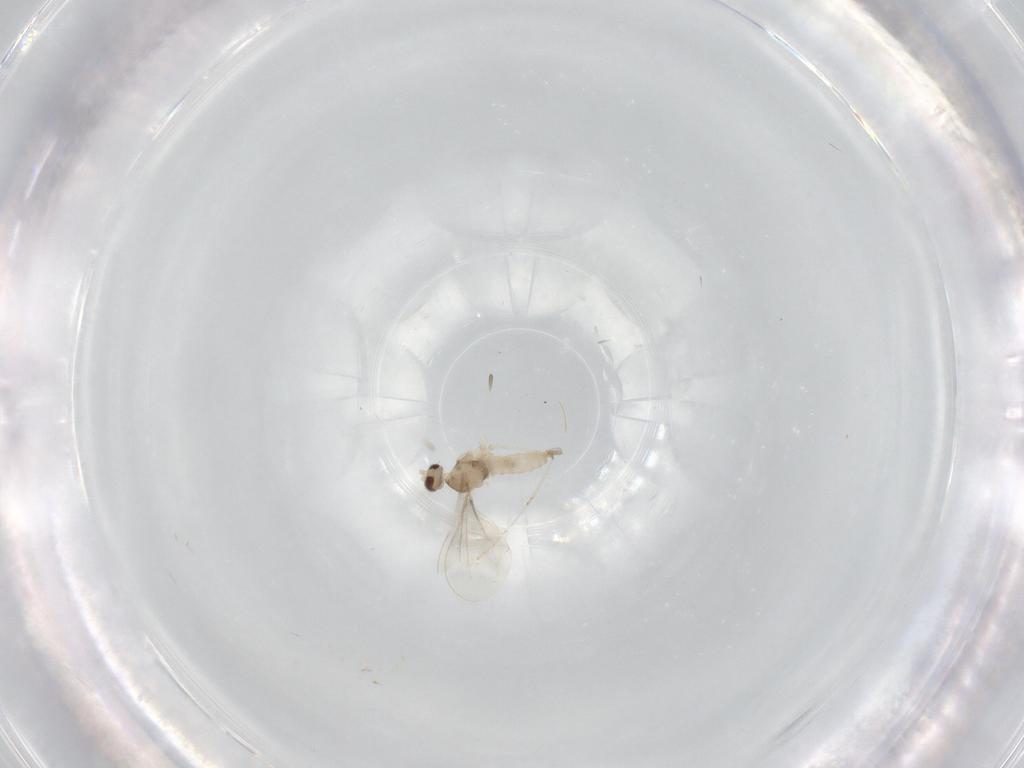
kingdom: Animalia
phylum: Arthropoda
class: Insecta
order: Diptera
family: Cecidomyiidae
